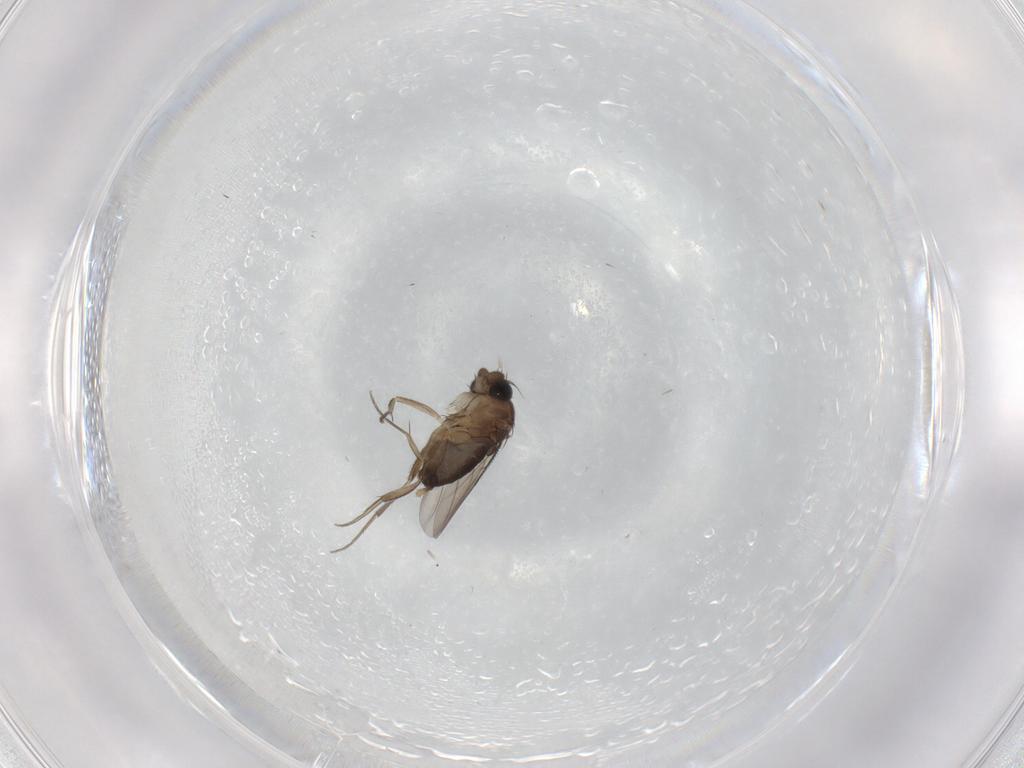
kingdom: Animalia
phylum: Arthropoda
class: Insecta
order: Diptera
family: Phoridae
